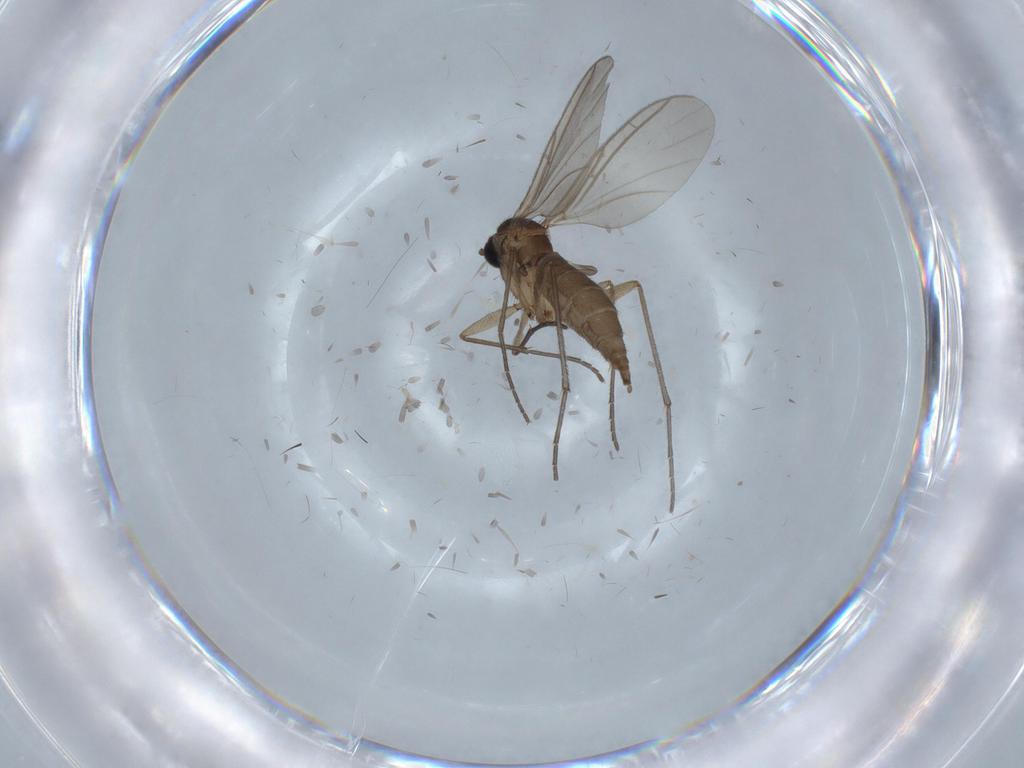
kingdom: Animalia
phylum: Arthropoda
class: Insecta
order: Diptera
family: Sciaridae
